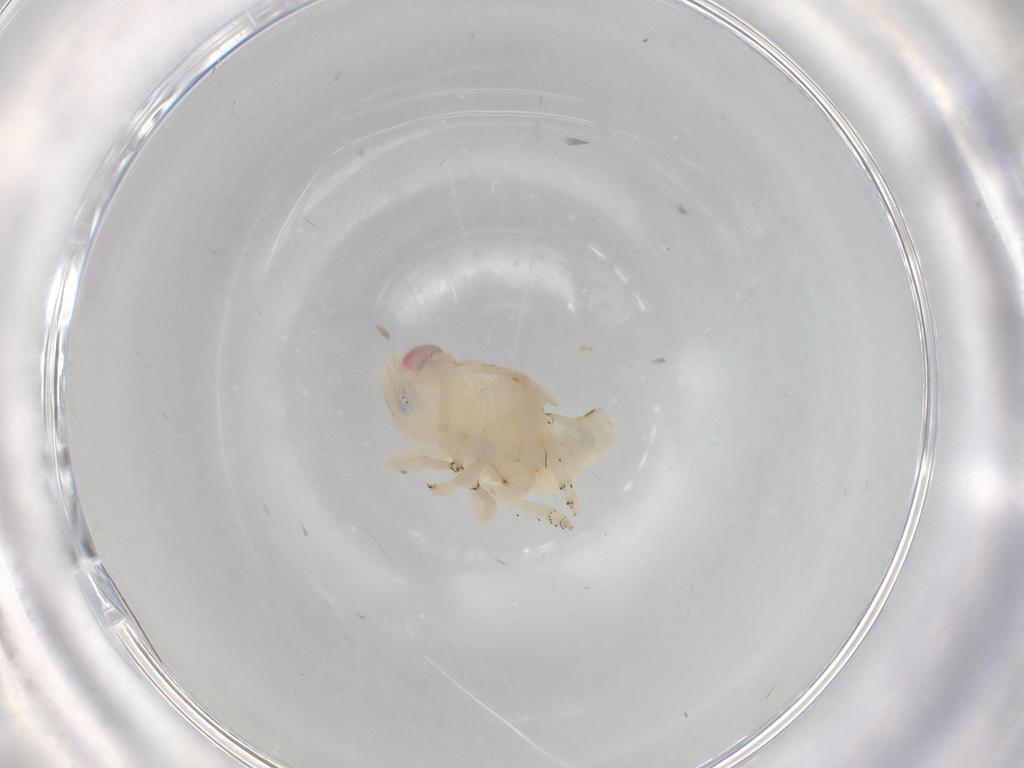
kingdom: Animalia
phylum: Arthropoda
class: Insecta
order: Hemiptera
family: Nogodinidae
